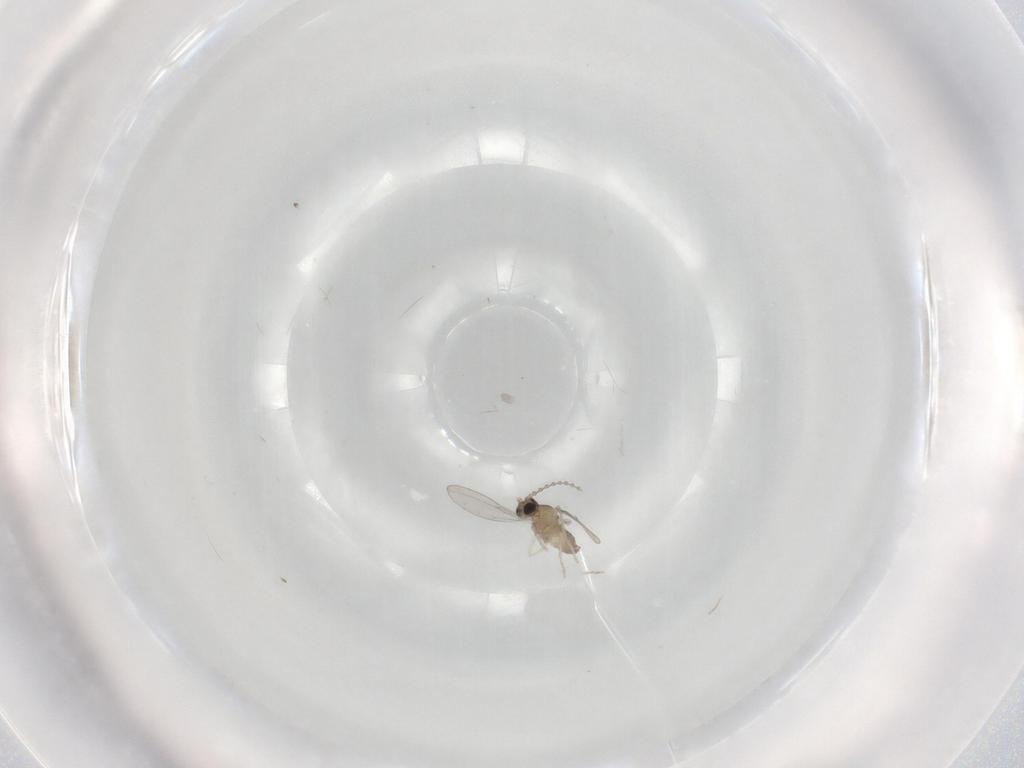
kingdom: Animalia
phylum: Arthropoda
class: Insecta
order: Diptera
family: Cecidomyiidae
